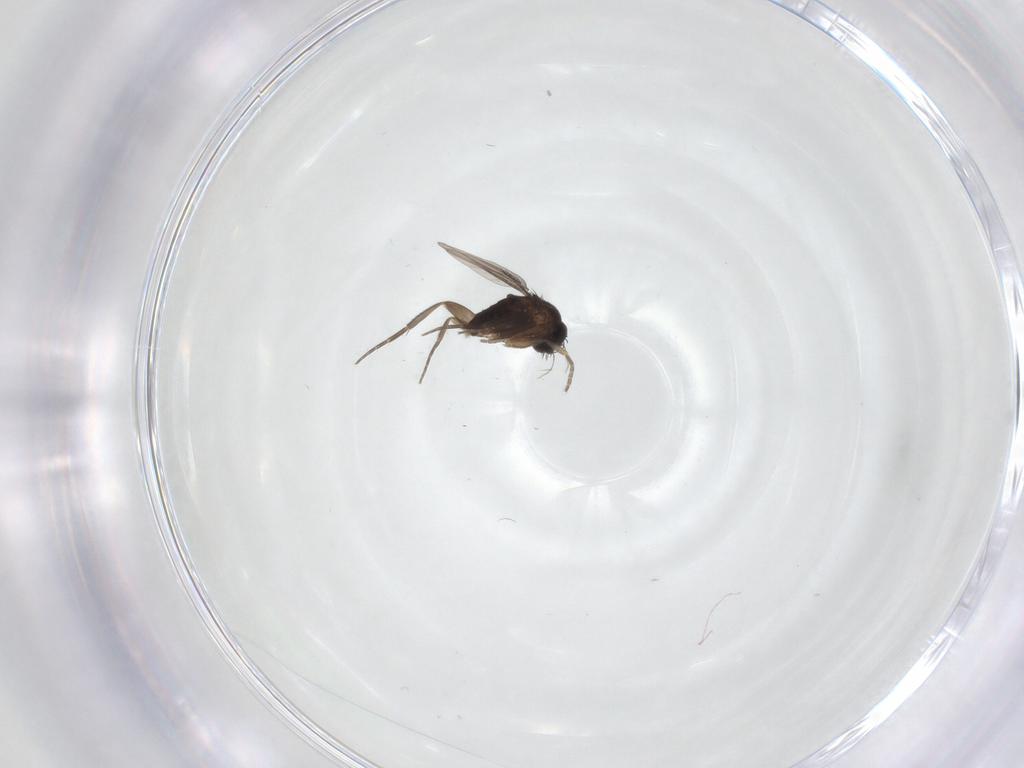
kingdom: Animalia
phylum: Arthropoda
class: Insecta
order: Diptera
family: Phoridae
